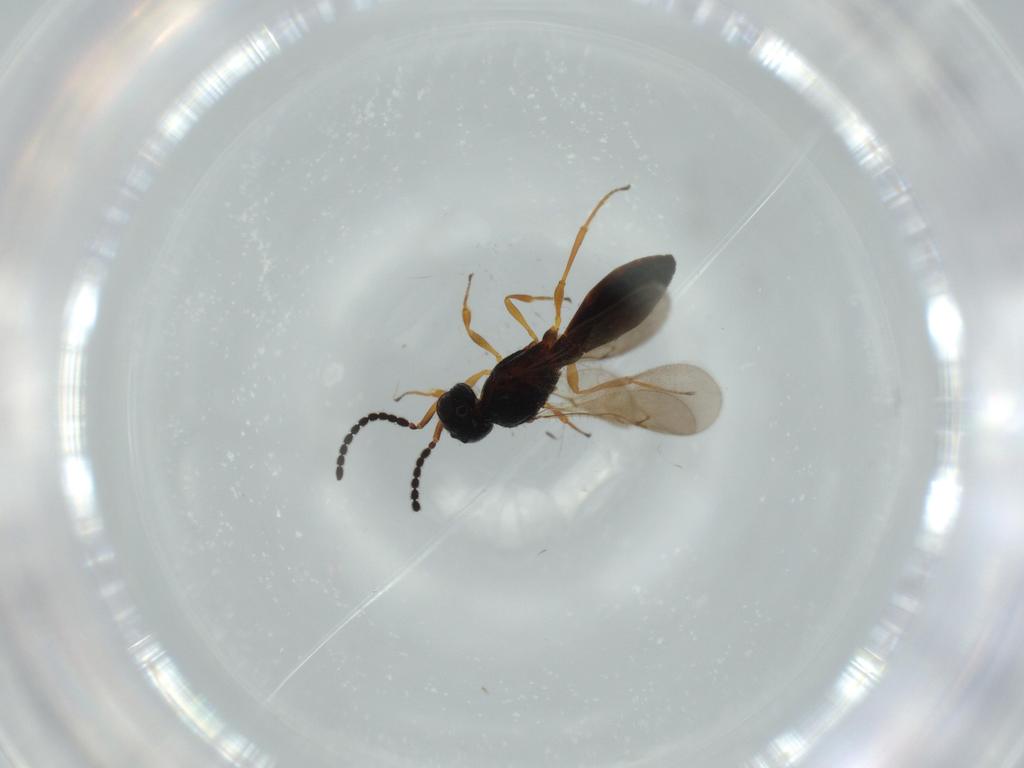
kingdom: Animalia
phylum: Arthropoda
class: Insecta
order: Hymenoptera
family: Scelionidae
